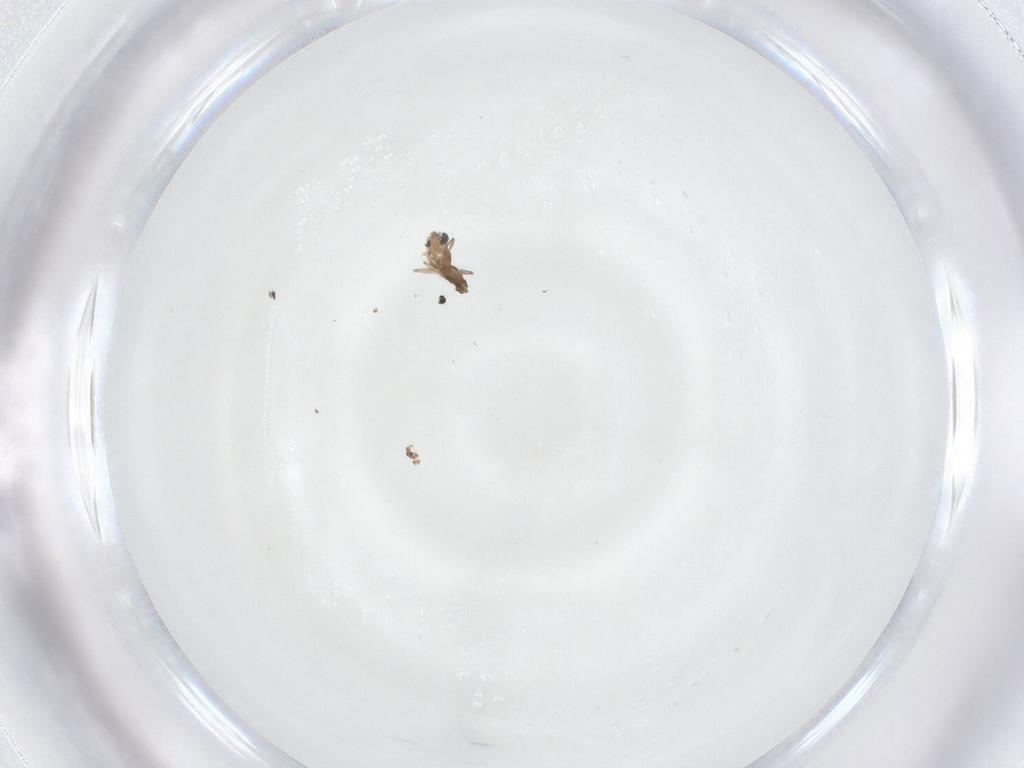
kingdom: Animalia
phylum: Arthropoda
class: Insecta
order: Diptera
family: Chironomidae
